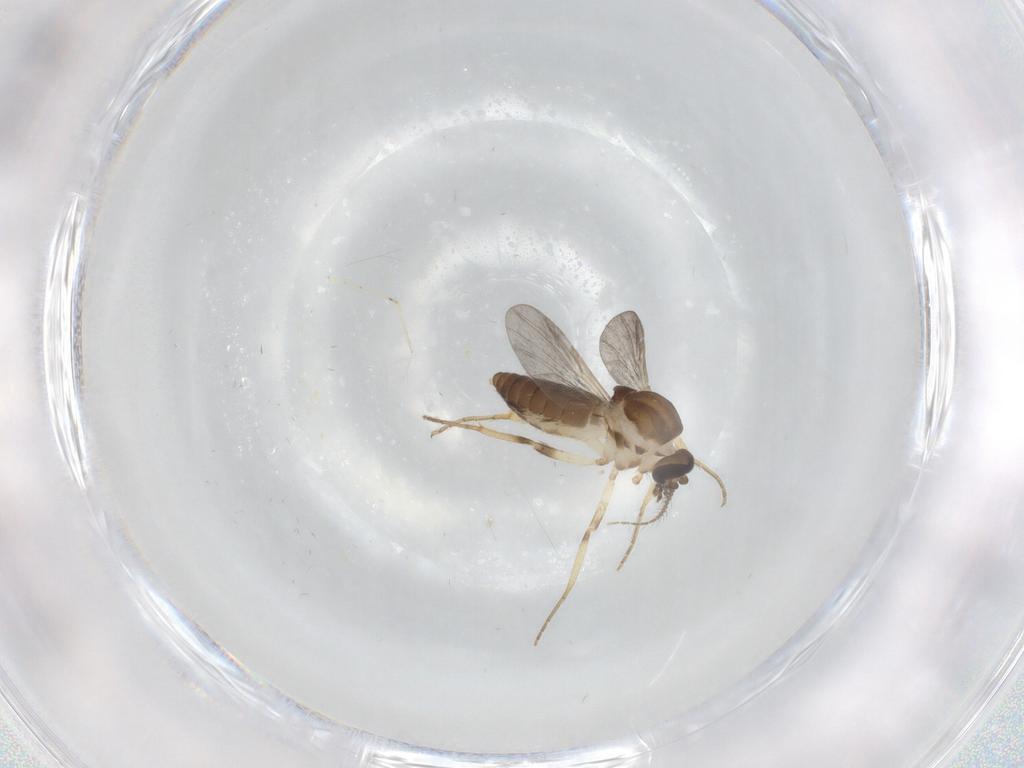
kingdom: Animalia
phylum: Arthropoda
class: Insecta
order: Diptera
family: Ceratopogonidae
